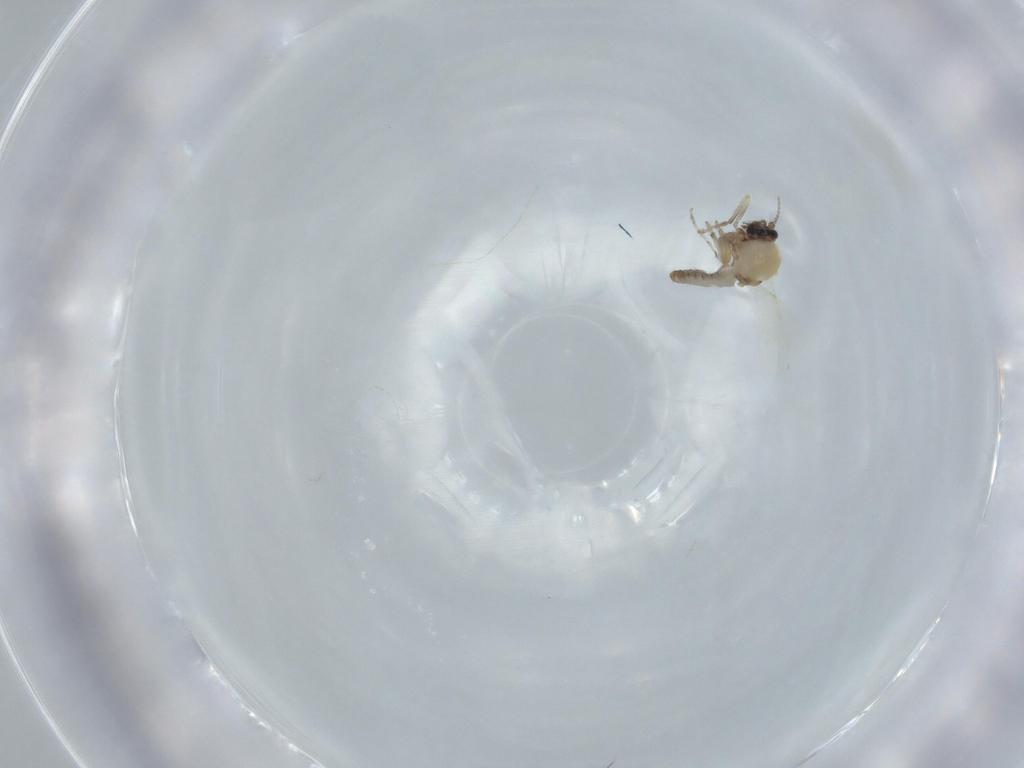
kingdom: Animalia
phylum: Arthropoda
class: Insecta
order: Diptera
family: Ceratopogonidae
